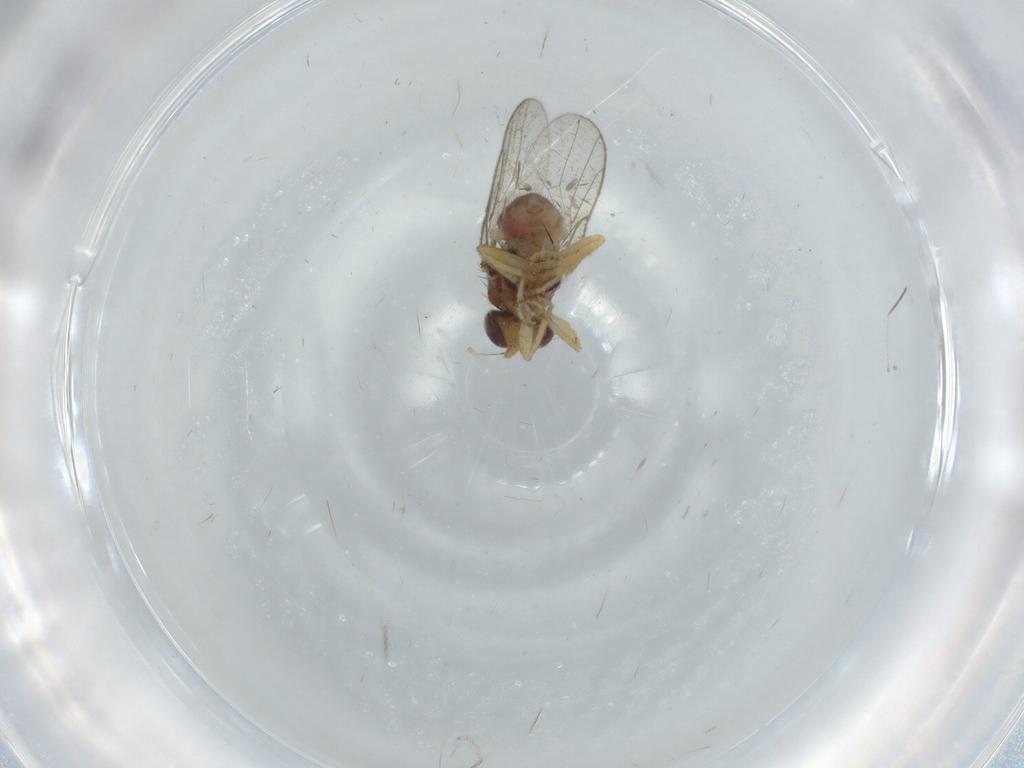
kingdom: Animalia
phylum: Arthropoda
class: Insecta
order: Diptera
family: Chloropidae
